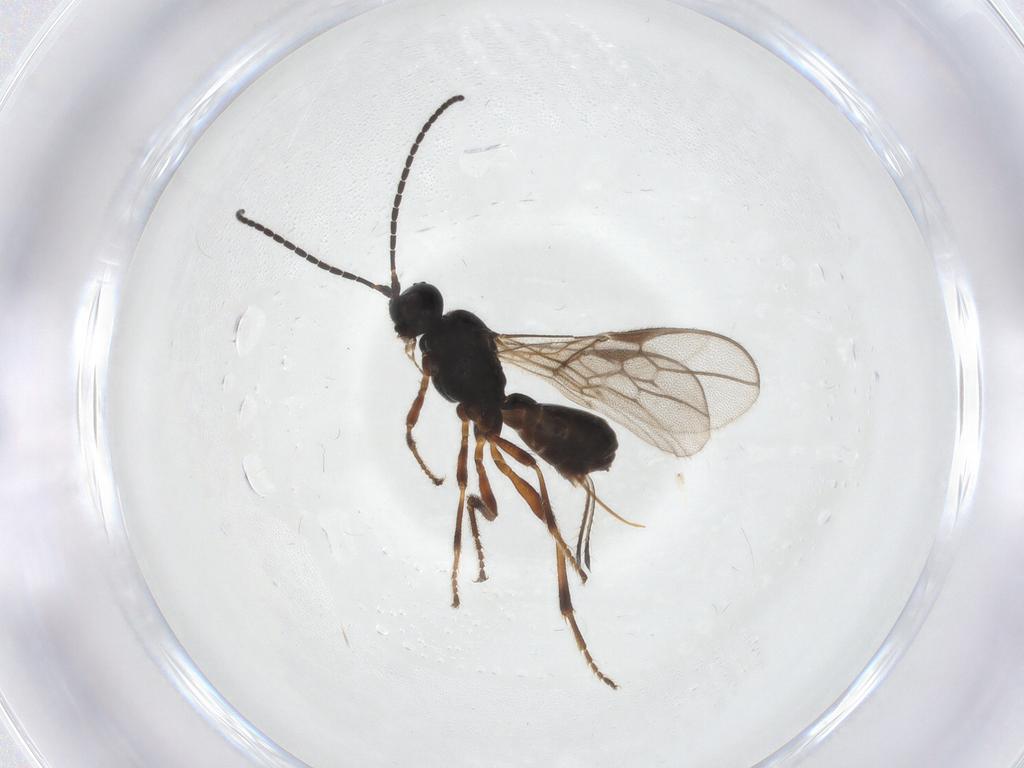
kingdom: Animalia
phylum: Arthropoda
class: Insecta
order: Hymenoptera
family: Braconidae
